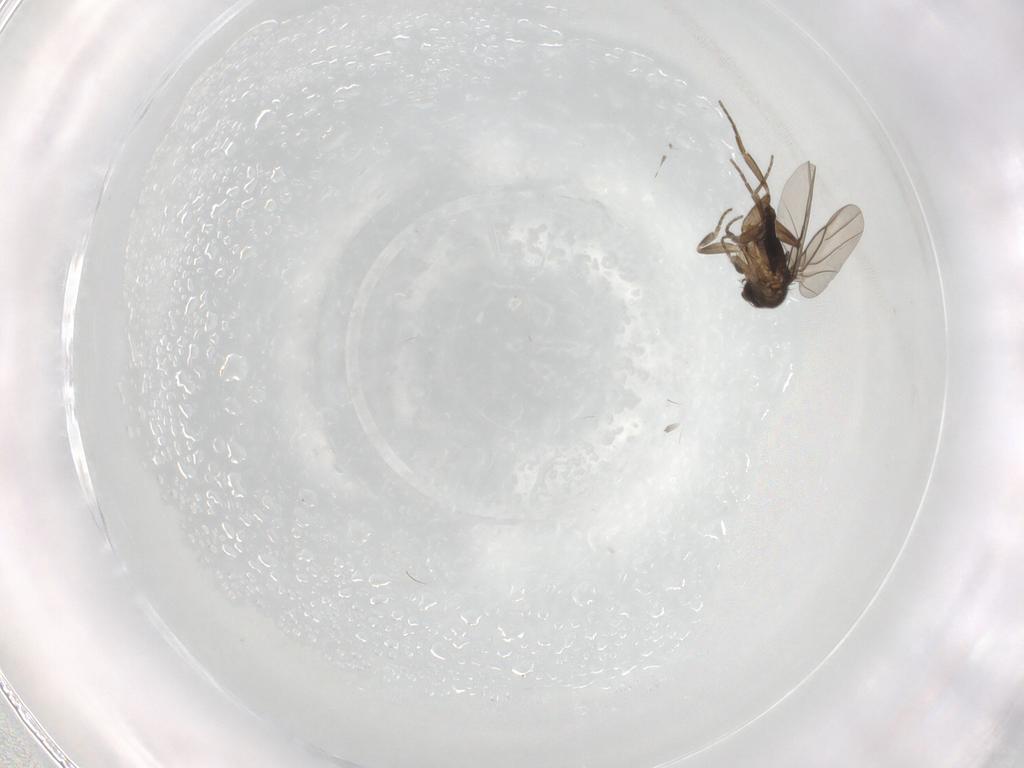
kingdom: Animalia
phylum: Arthropoda
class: Insecta
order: Diptera
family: Phoridae
